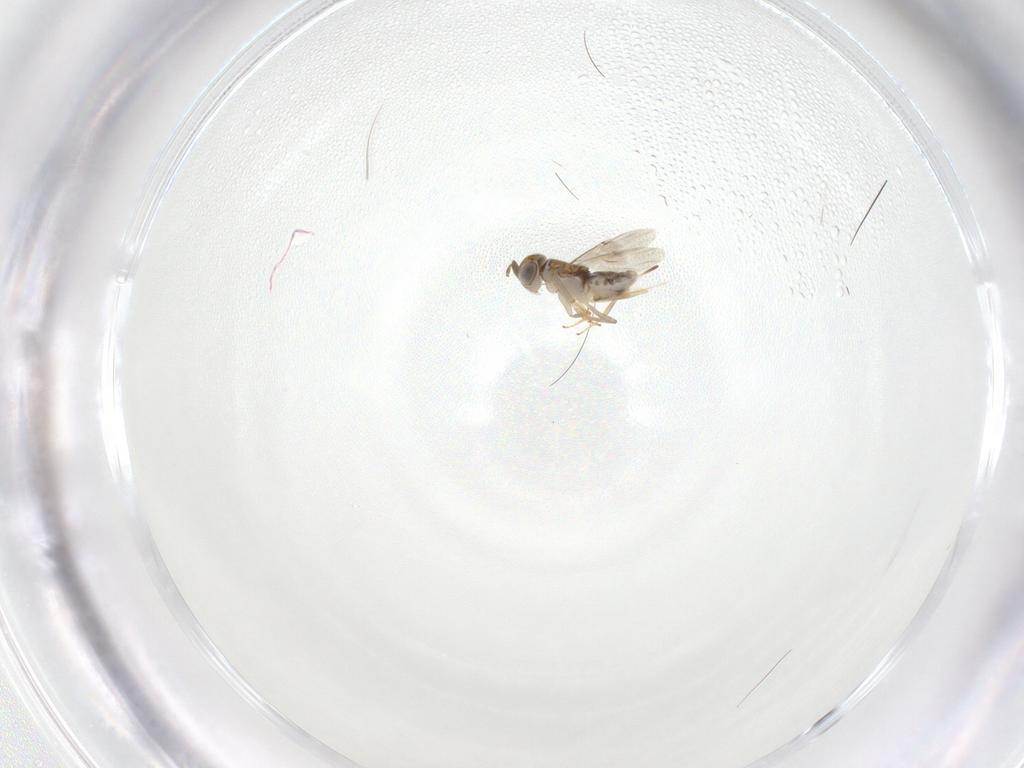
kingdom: Animalia
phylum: Arthropoda
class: Insecta
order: Hymenoptera
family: Encyrtidae
